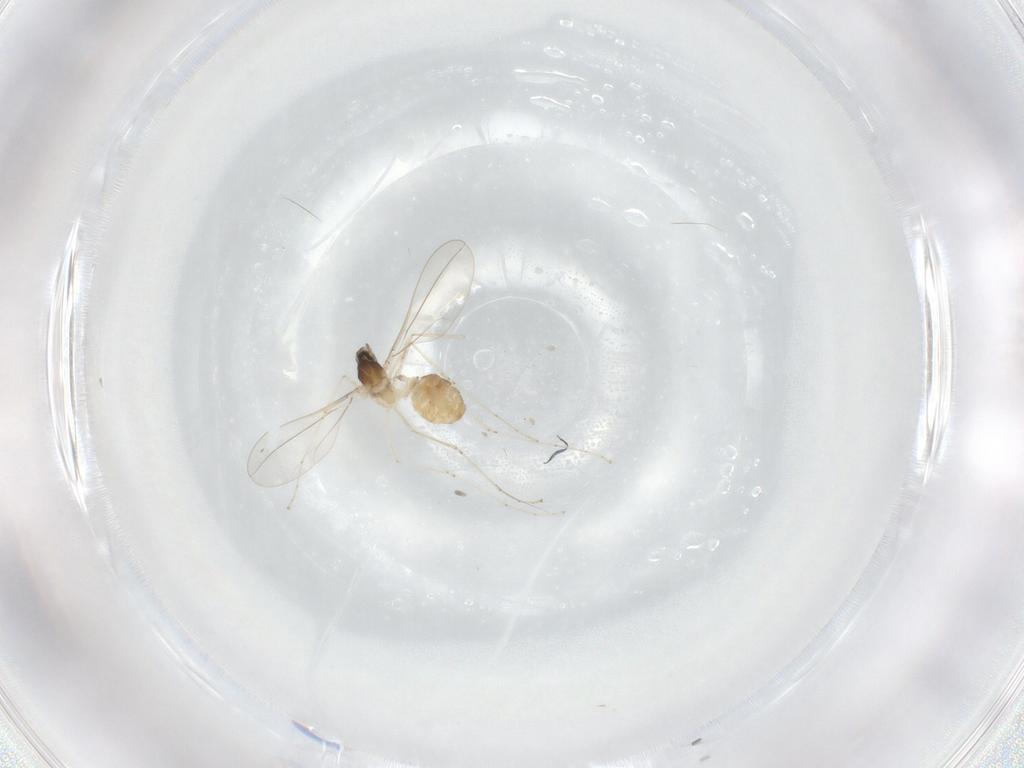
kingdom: Animalia
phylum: Arthropoda
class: Insecta
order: Diptera
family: Cecidomyiidae
